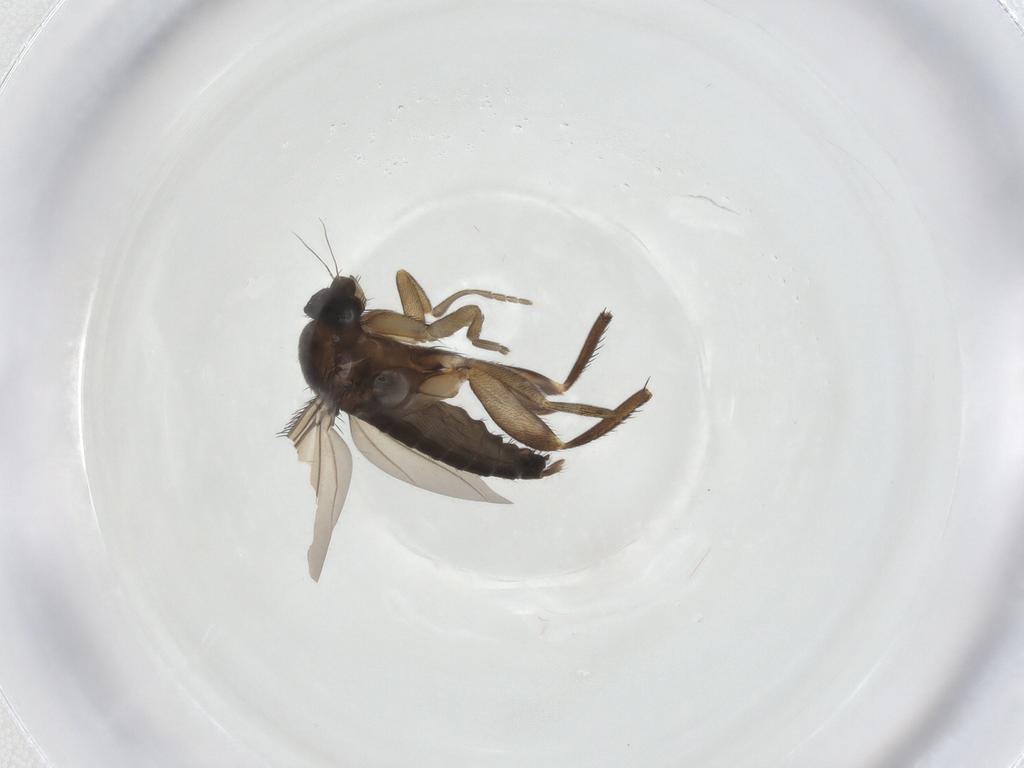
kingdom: Animalia
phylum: Arthropoda
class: Insecta
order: Diptera
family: Phoridae
